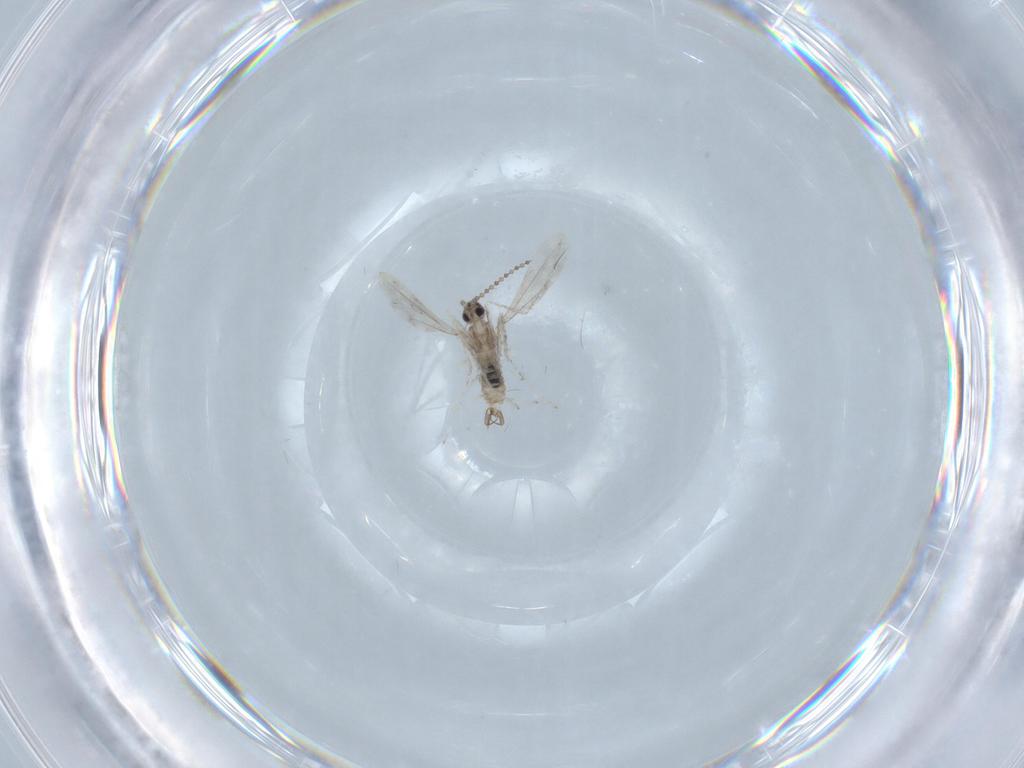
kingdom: Animalia
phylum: Arthropoda
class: Insecta
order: Diptera
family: Cecidomyiidae
